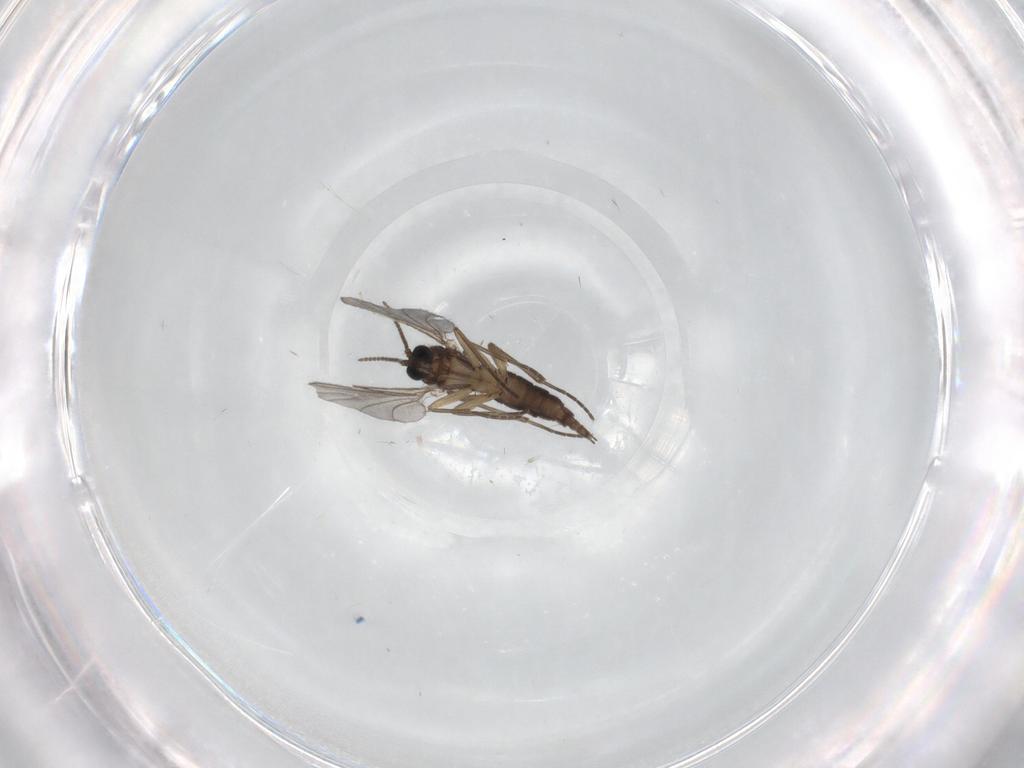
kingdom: Animalia
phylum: Arthropoda
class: Insecta
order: Diptera
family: Sciaridae
